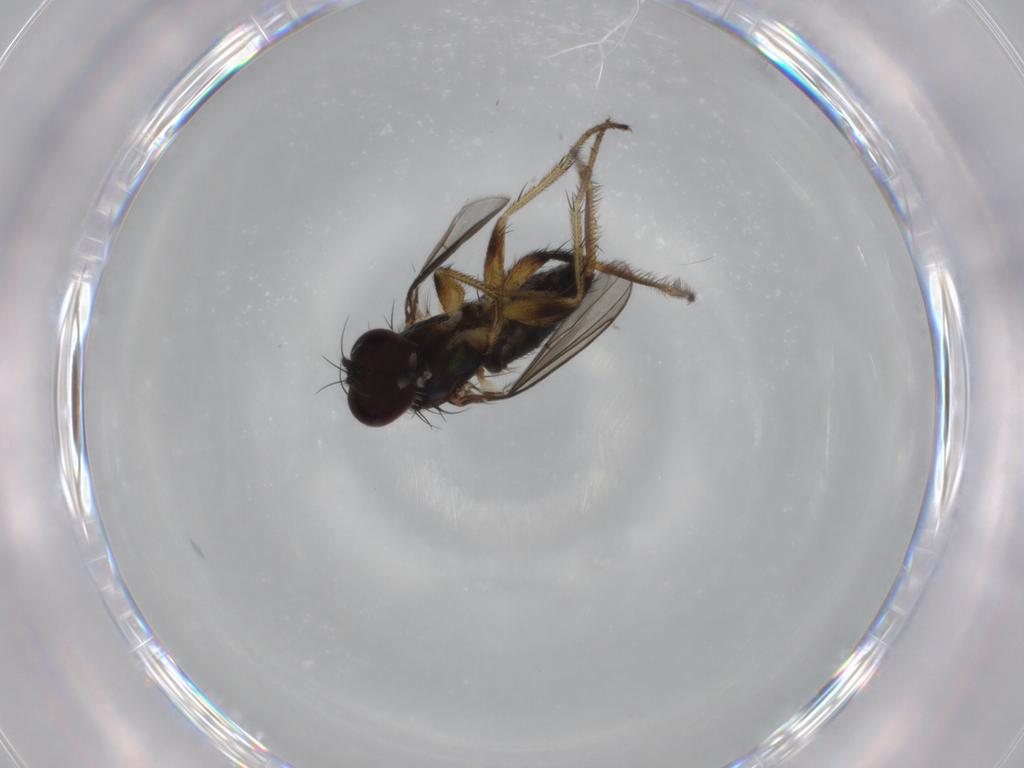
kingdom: Animalia
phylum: Arthropoda
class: Insecta
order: Diptera
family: Dolichopodidae
